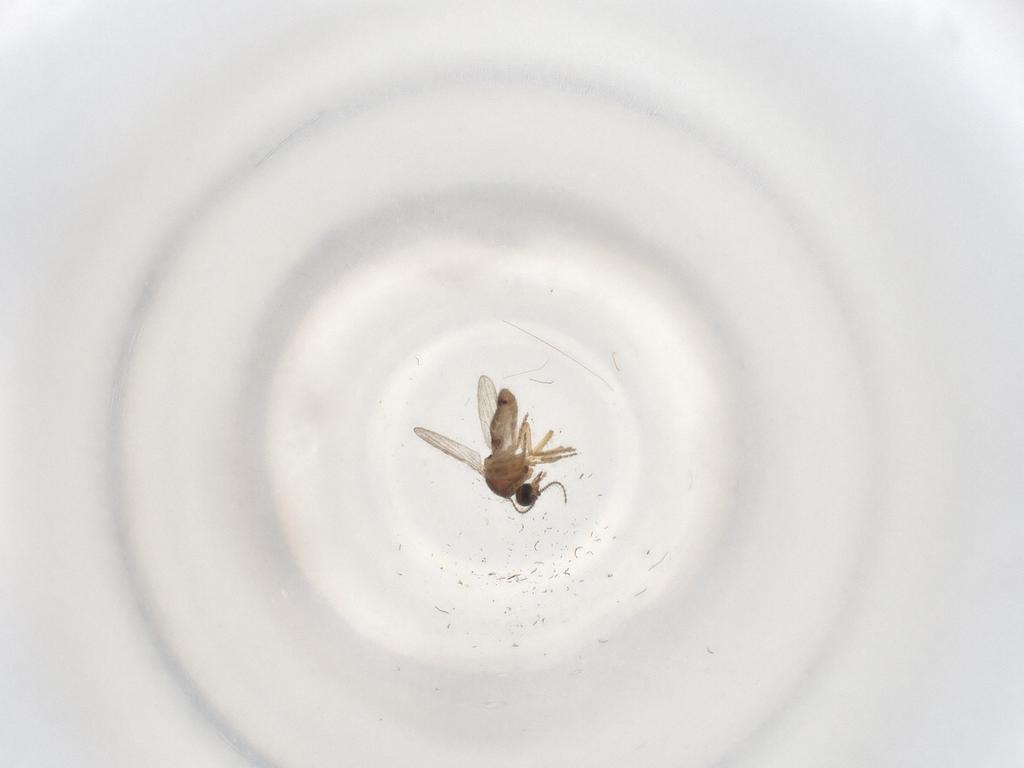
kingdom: Animalia
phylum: Arthropoda
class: Insecta
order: Diptera
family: Ceratopogonidae
